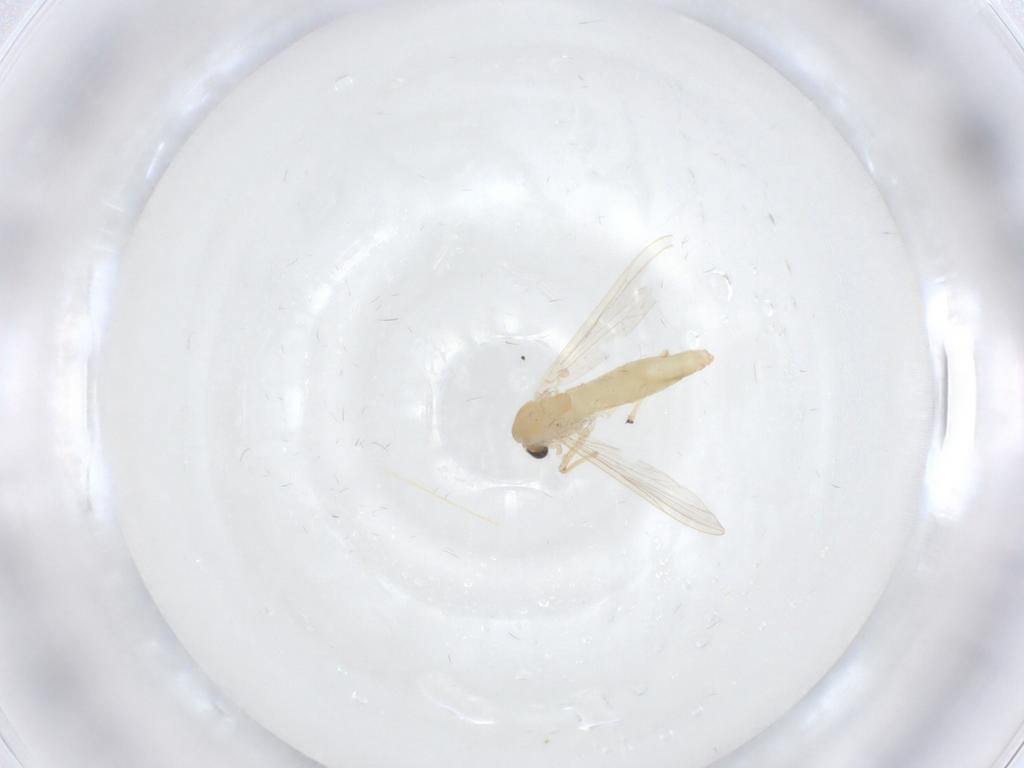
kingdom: Animalia
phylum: Arthropoda
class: Insecta
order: Diptera
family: Chironomidae
